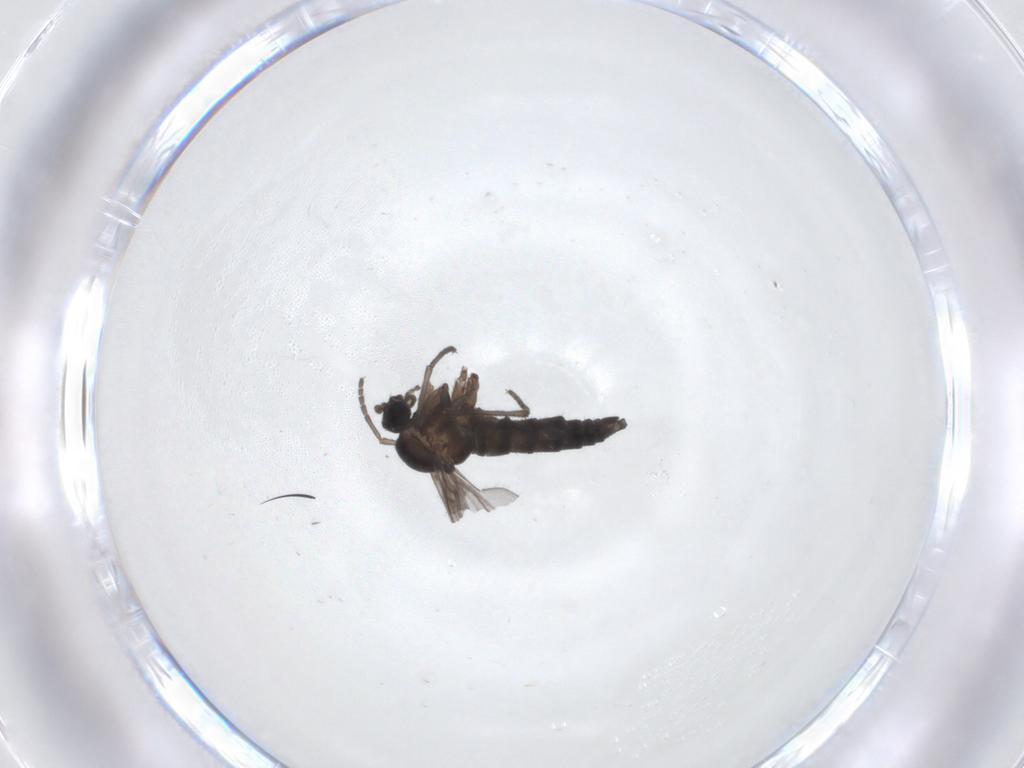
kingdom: Animalia
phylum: Arthropoda
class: Insecta
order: Diptera
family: Sciaridae
